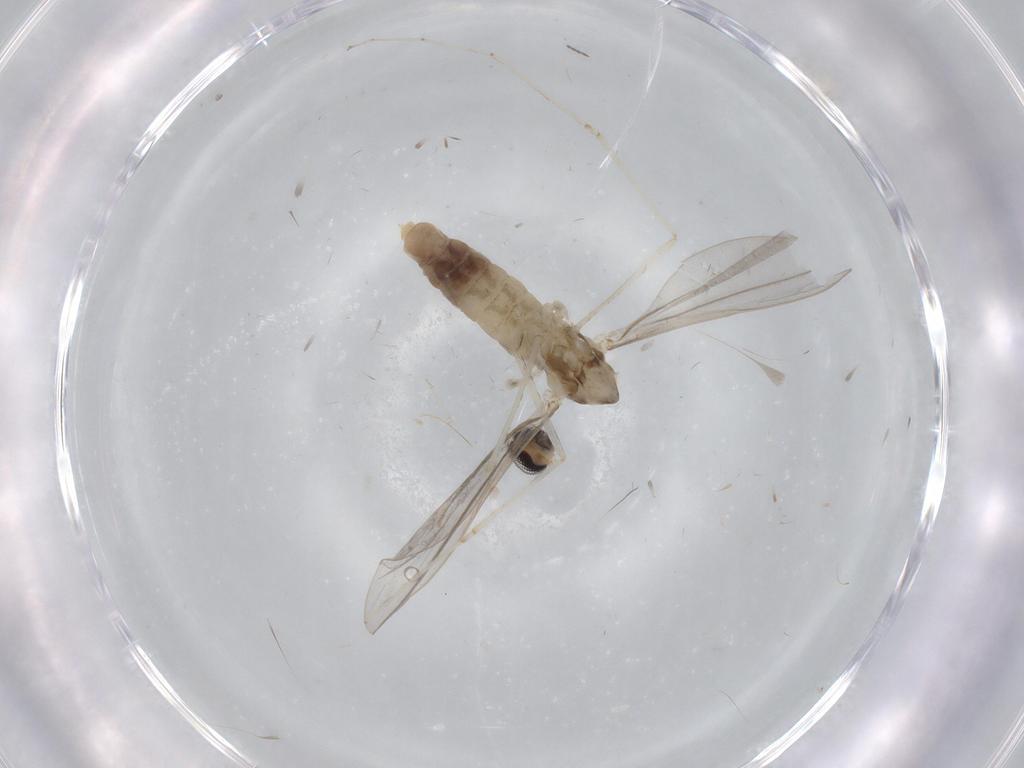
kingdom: Animalia
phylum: Arthropoda
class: Insecta
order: Diptera
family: Cecidomyiidae
